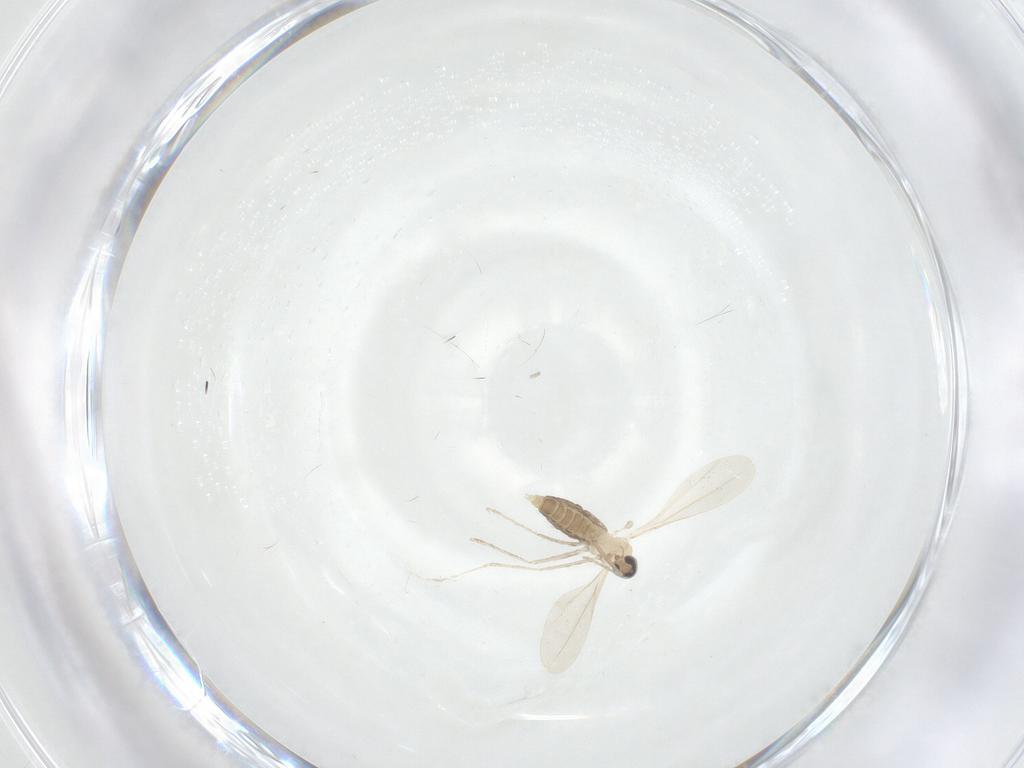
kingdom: Animalia
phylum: Arthropoda
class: Insecta
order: Diptera
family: Cecidomyiidae
